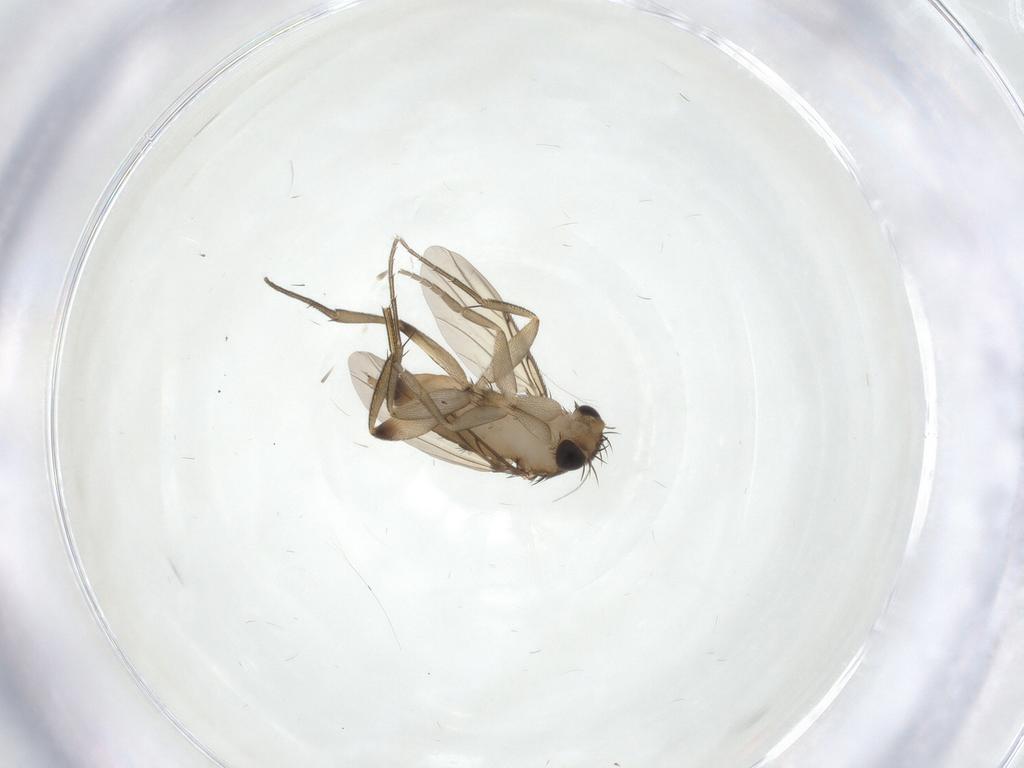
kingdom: Animalia
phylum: Arthropoda
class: Insecta
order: Diptera
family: Phoridae
